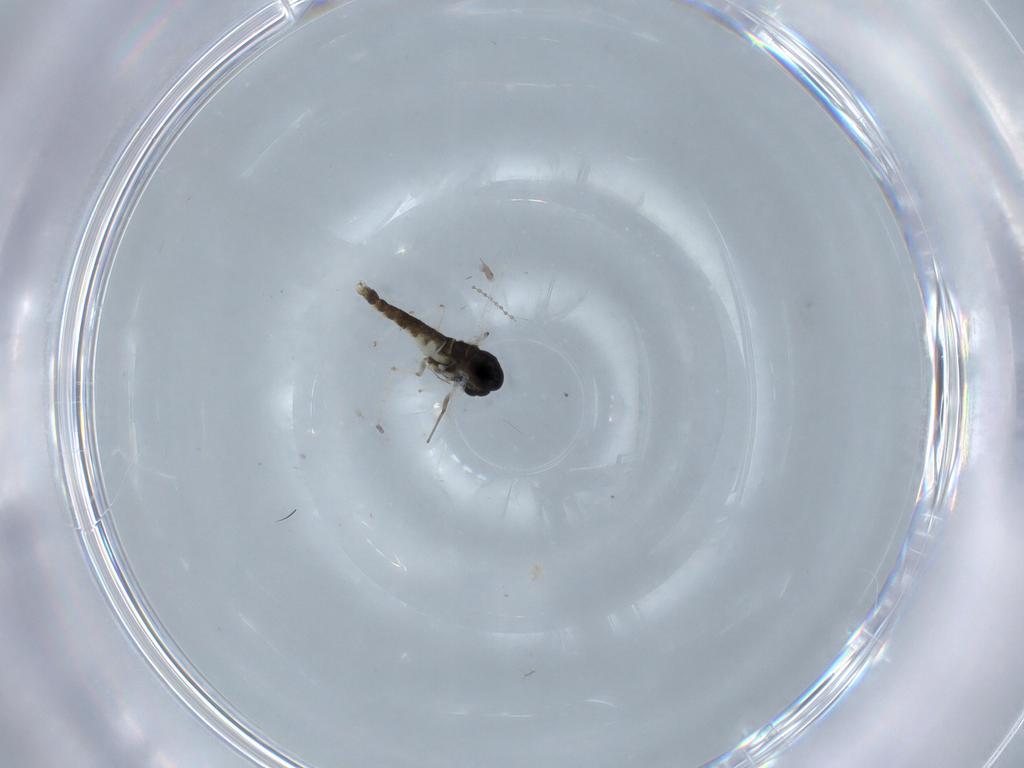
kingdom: Animalia
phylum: Arthropoda
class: Insecta
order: Diptera
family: Chironomidae
